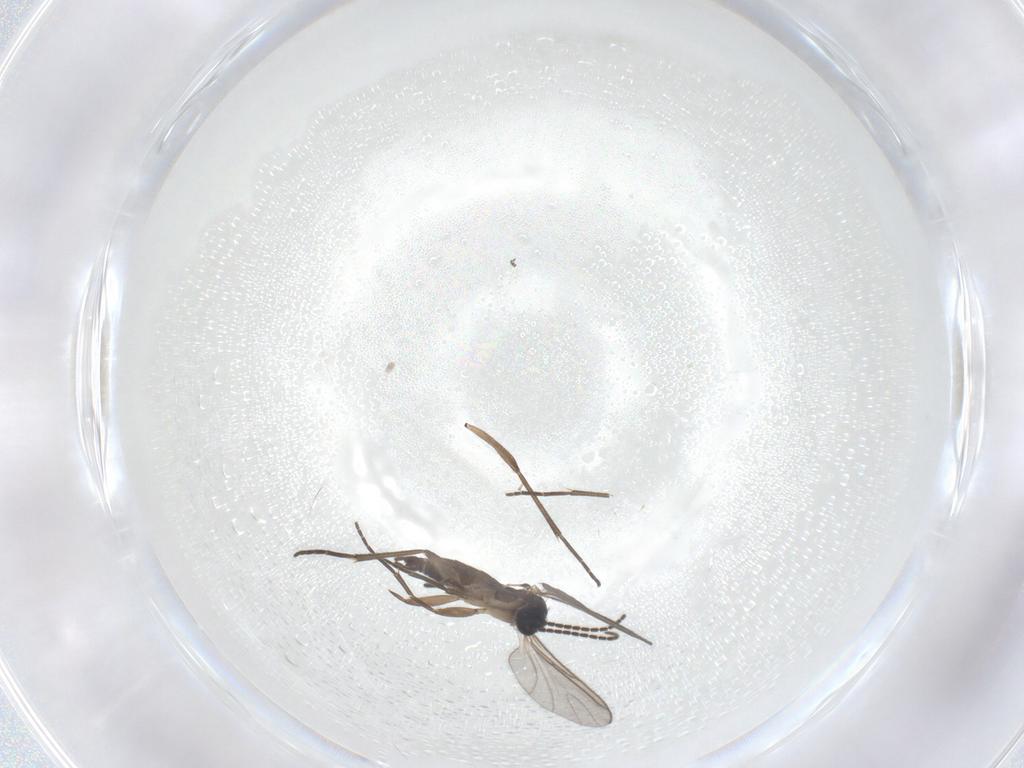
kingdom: Animalia
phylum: Arthropoda
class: Insecta
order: Diptera
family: Sciaridae
